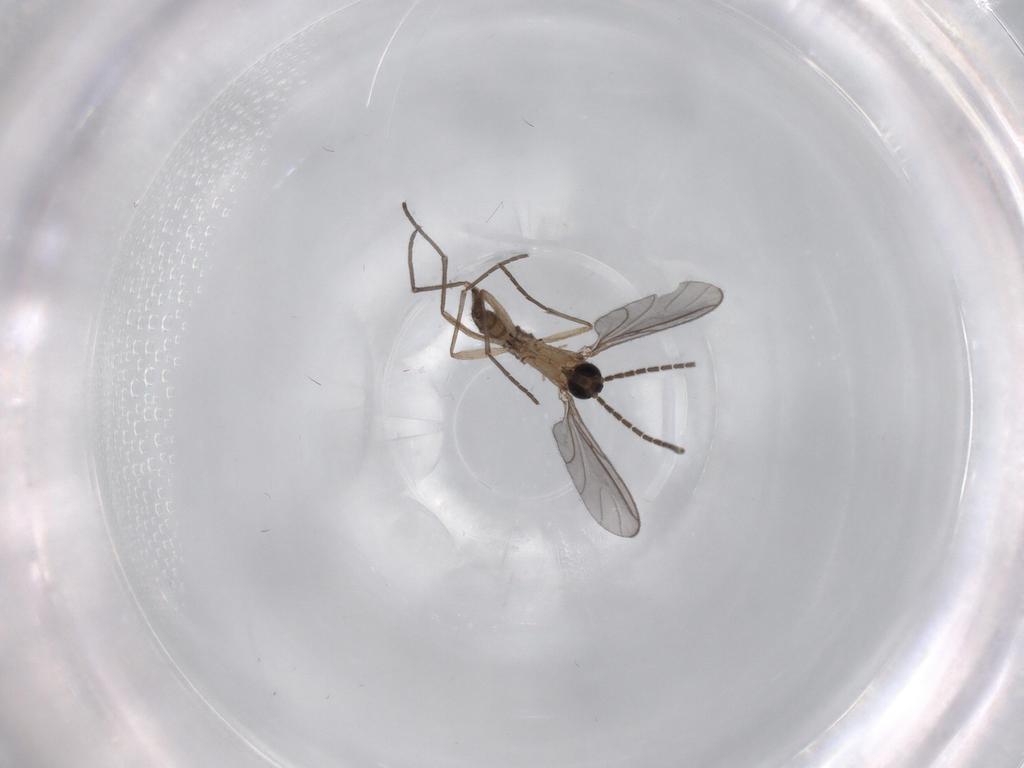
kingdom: Animalia
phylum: Arthropoda
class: Insecta
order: Diptera
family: Sciaridae
